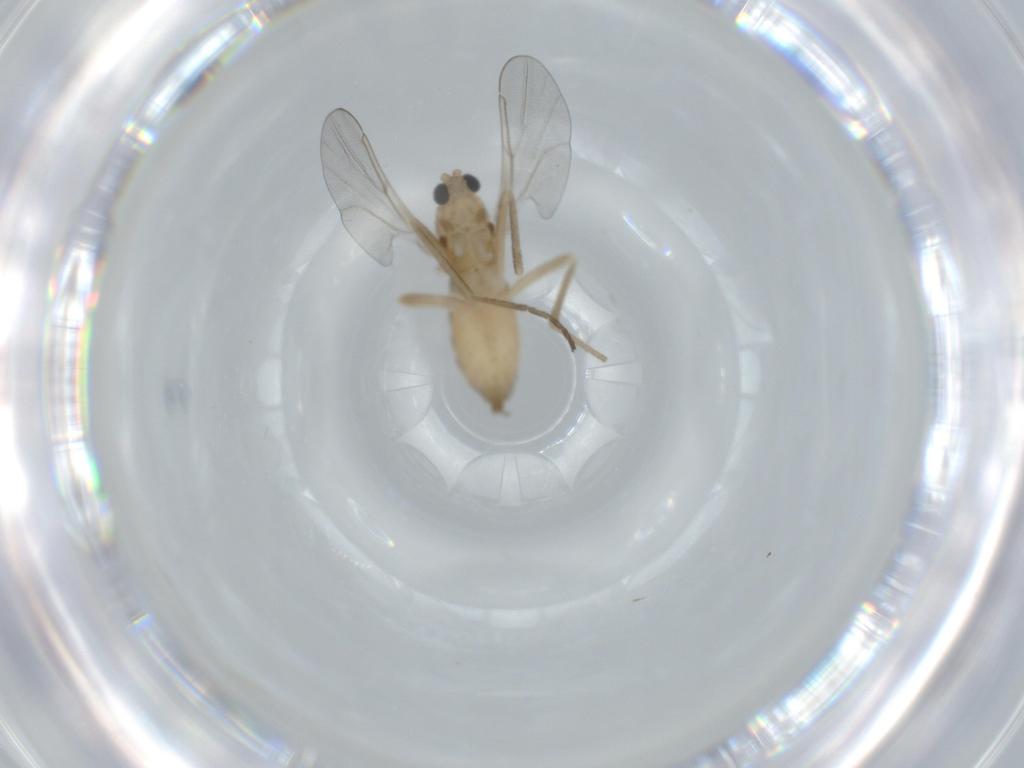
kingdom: Animalia
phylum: Arthropoda
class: Insecta
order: Diptera
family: Cecidomyiidae
